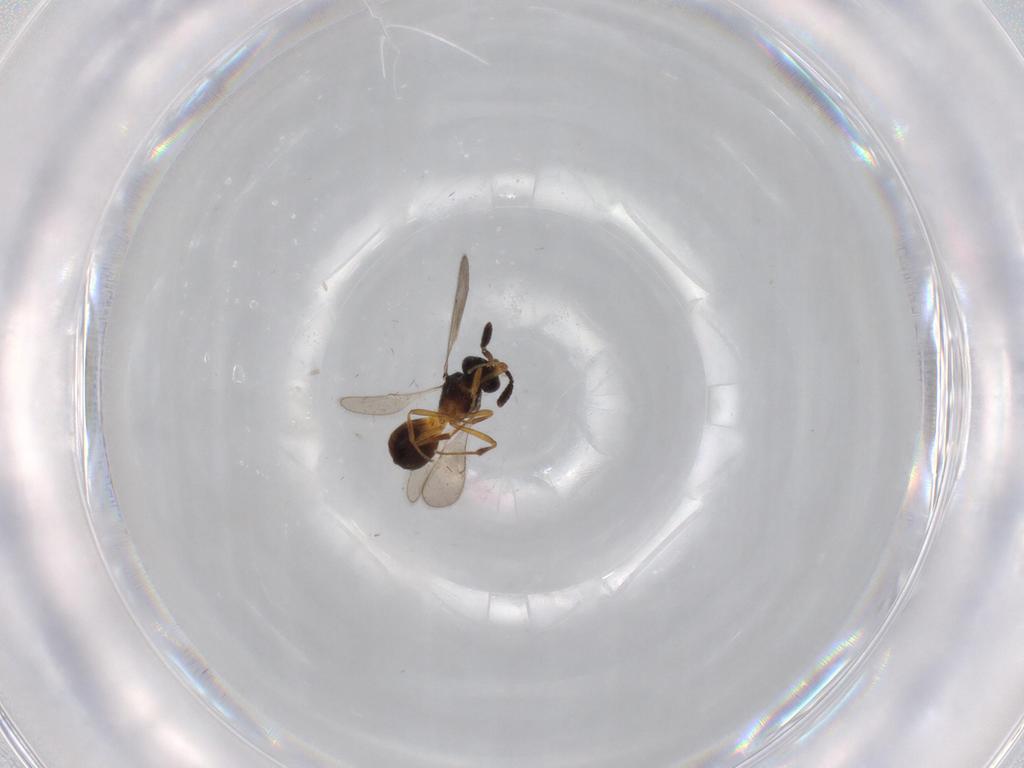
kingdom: Animalia
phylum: Arthropoda
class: Insecta
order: Hymenoptera
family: Scelionidae
